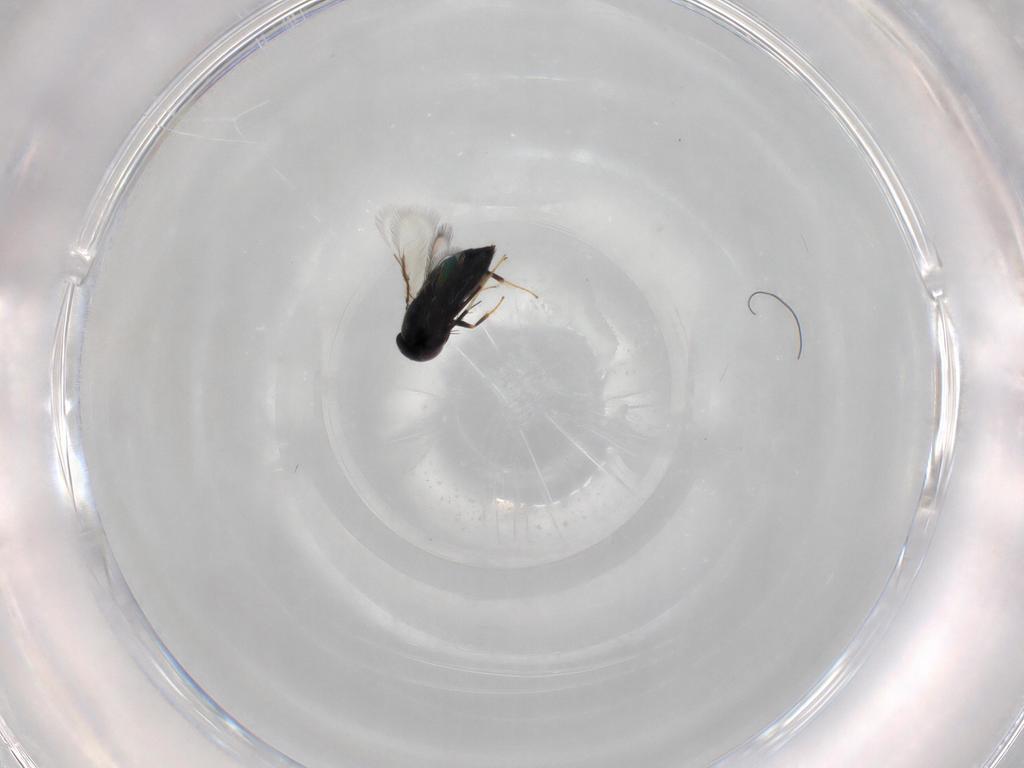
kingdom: Animalia
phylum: Arthropoda
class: Insecta
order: Hymenoptera
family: Signiphoridae
